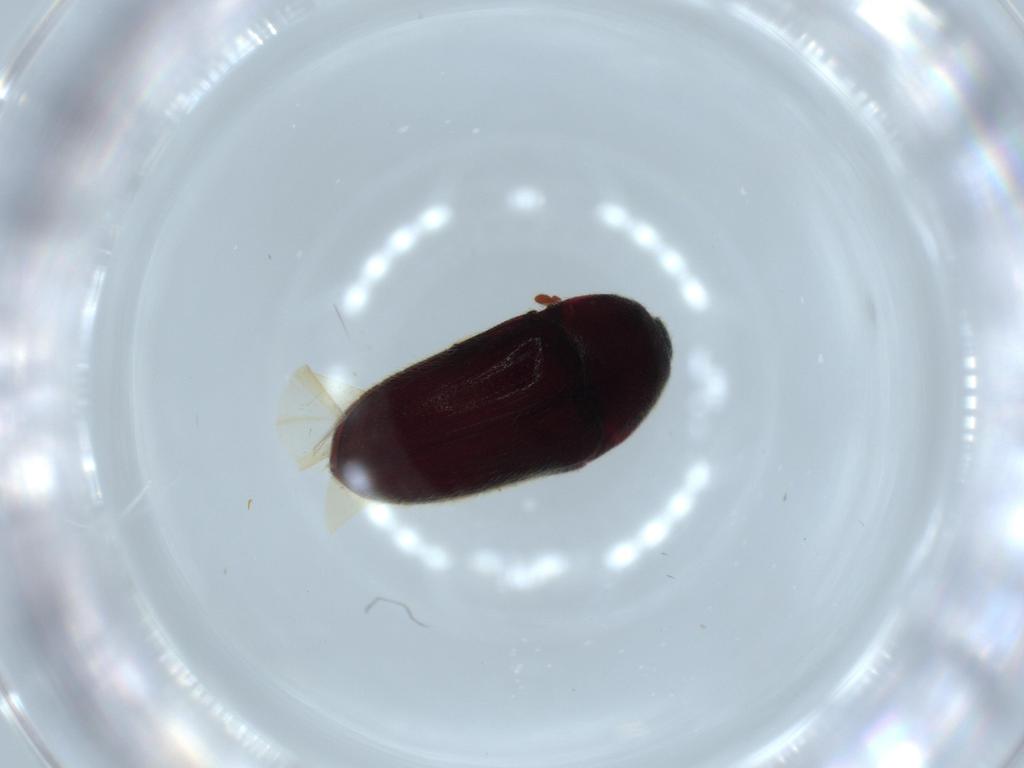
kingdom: Animalia
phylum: Arthropoda
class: Insecta
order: Coleoptera
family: Throscidae
